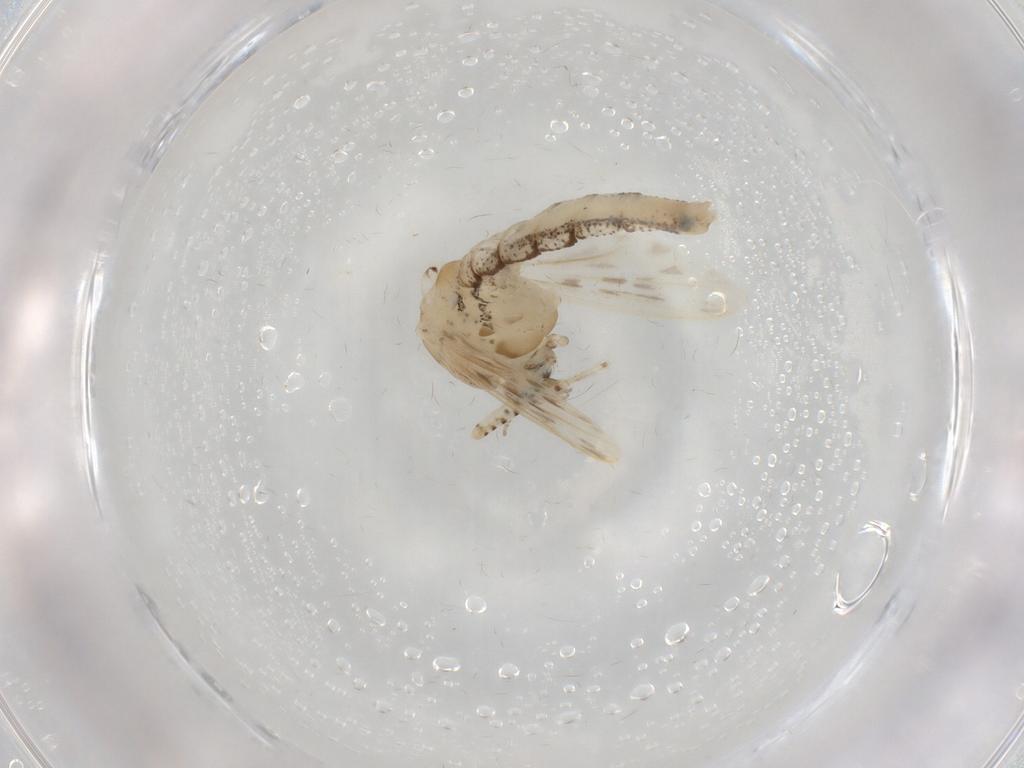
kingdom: Animalia
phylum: Arthropoda
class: Insecta
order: Diptera
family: Chaoboridae
